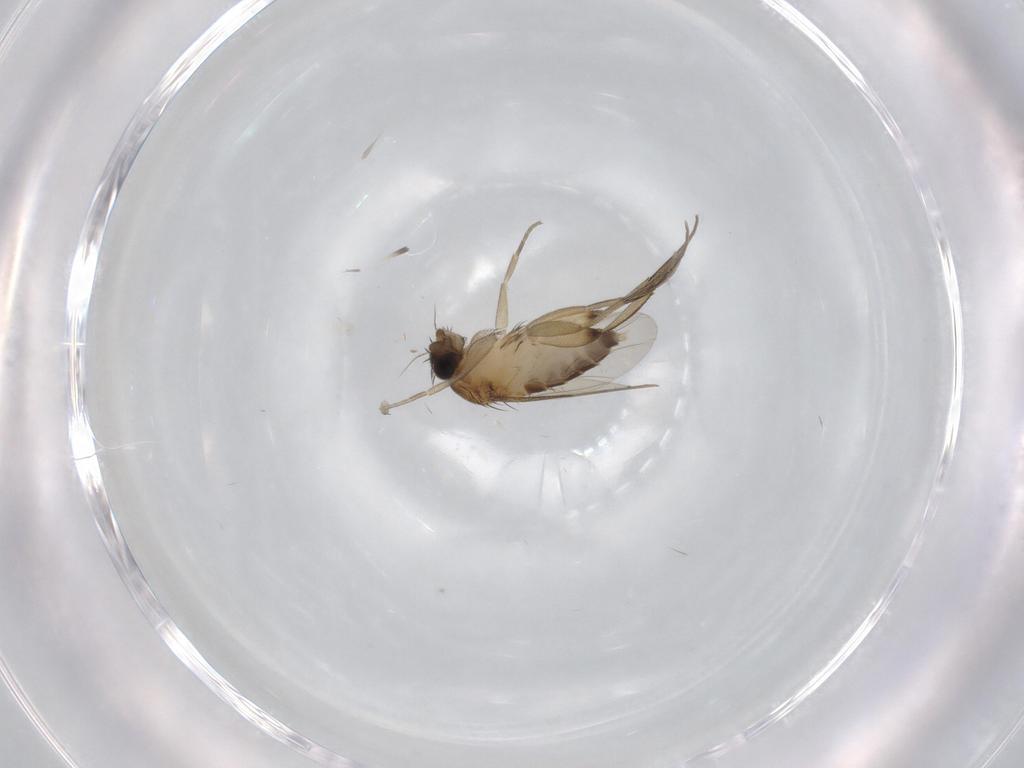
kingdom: Animalia
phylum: Arthropoda
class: Insecta
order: Diptera
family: Phoridae
